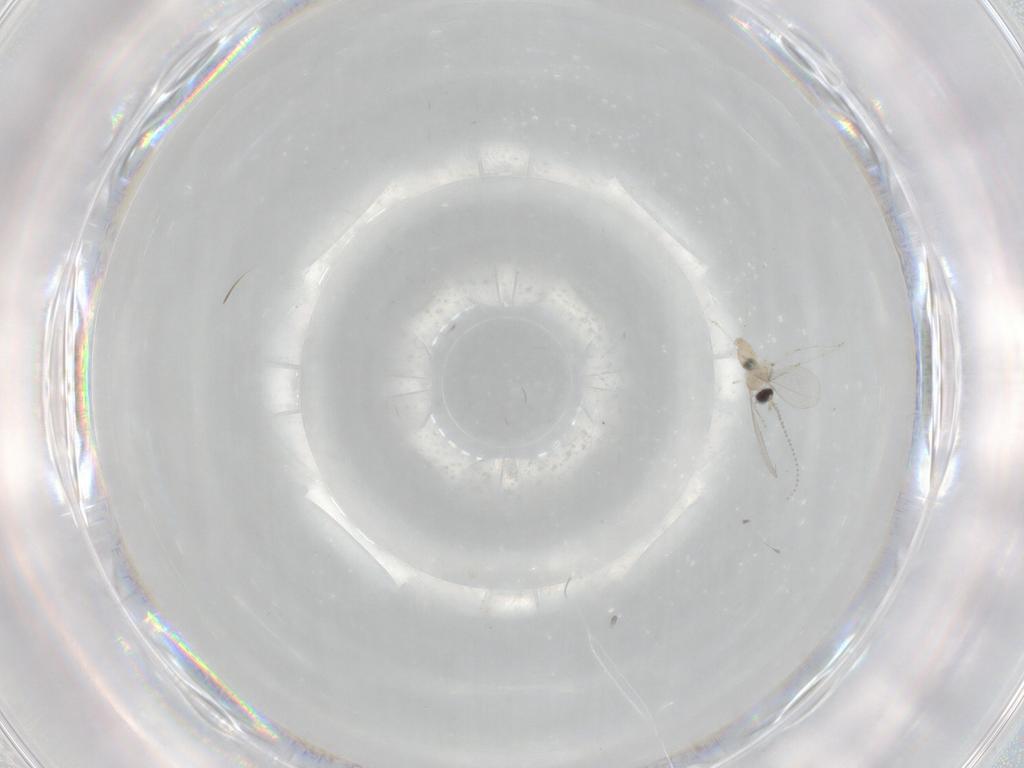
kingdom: Animalia
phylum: Arthropoda
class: Insecta
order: Diptera
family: Cecidomyiidae
